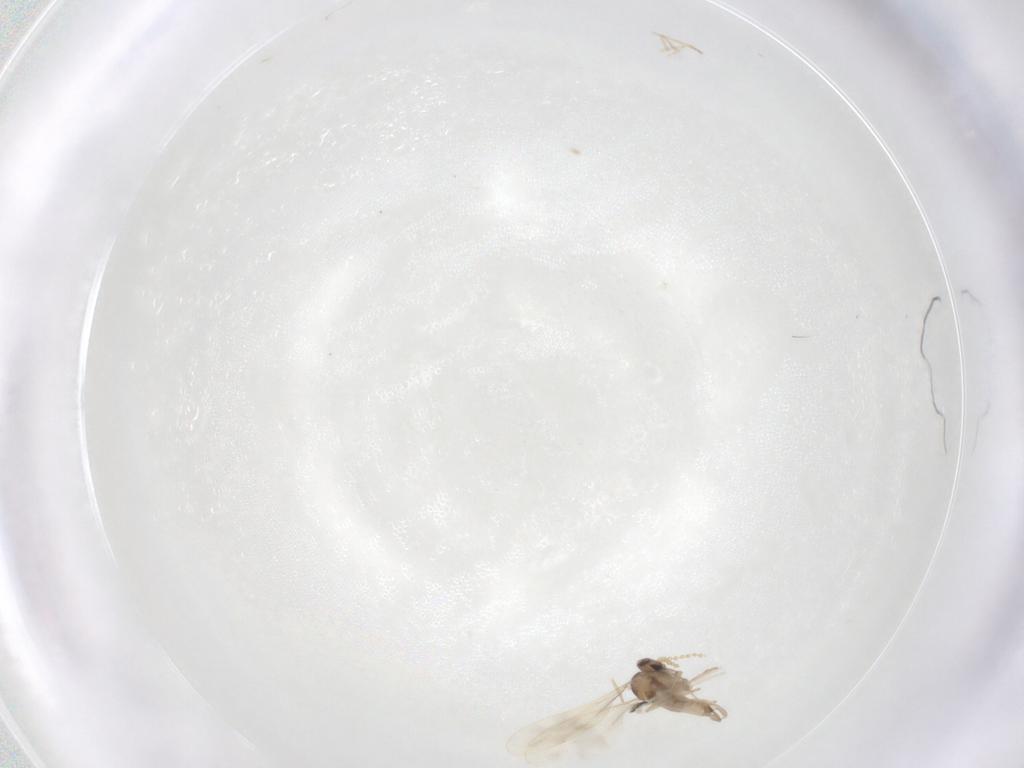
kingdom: Animalia
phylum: Arthropoda
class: Insecta
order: Diptera
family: Cecidomyiidae
